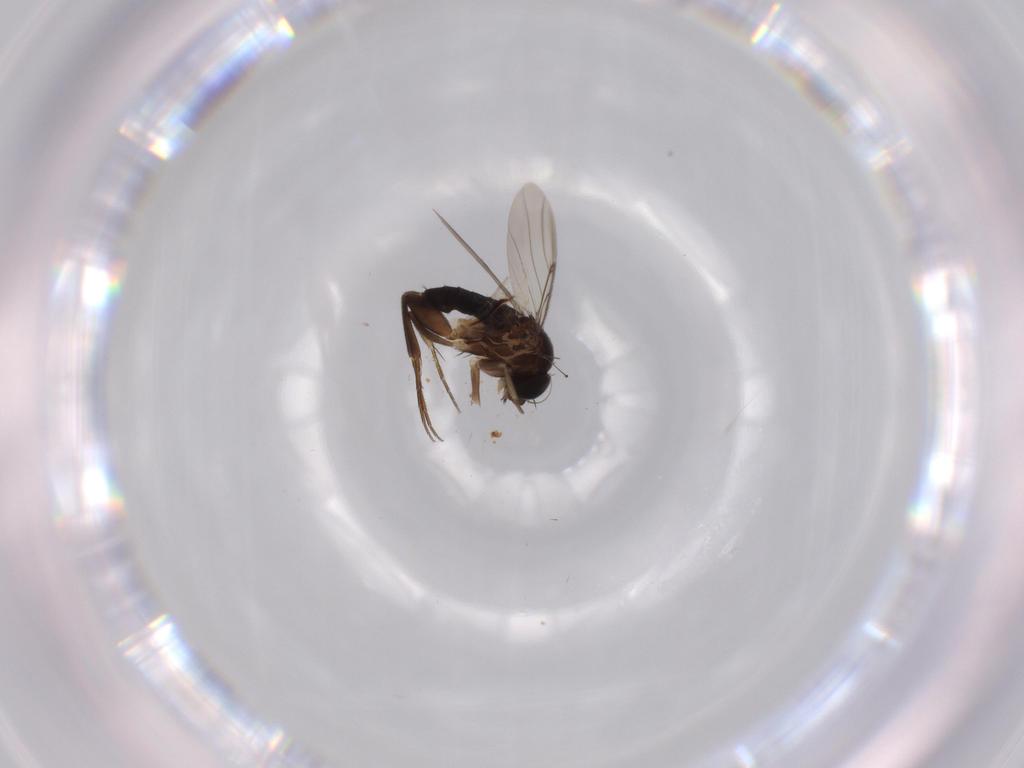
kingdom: Animalia
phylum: Arthropoda
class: Insecta
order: Diptera
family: Phoridae
